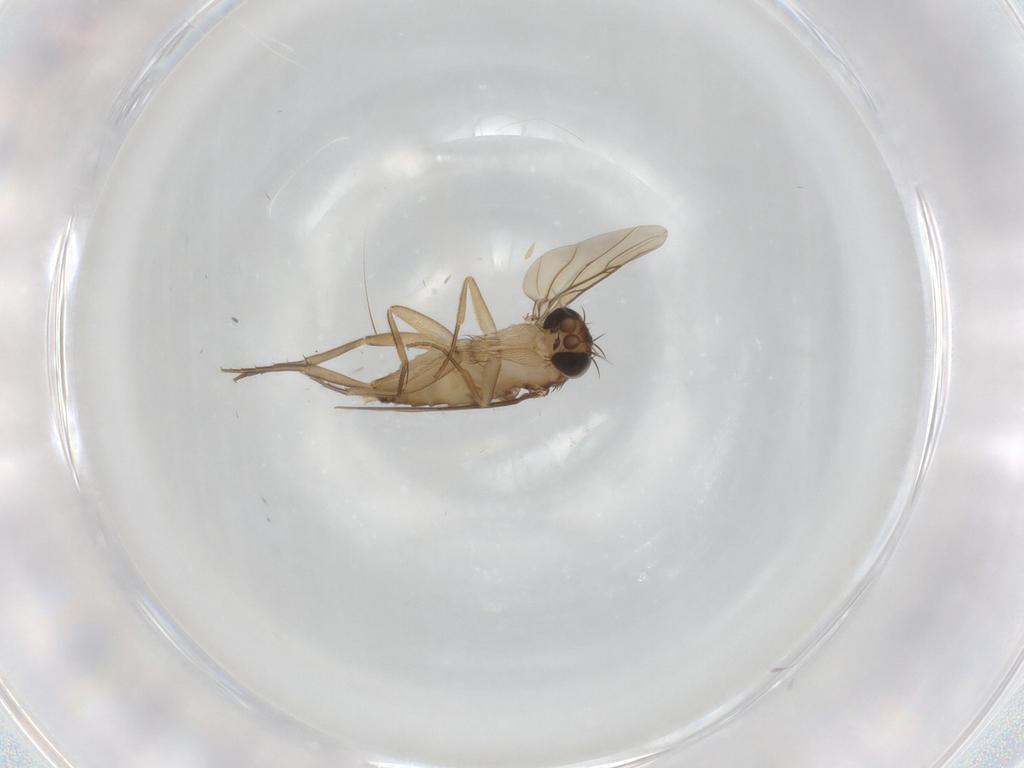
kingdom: Animalia
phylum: Arthropoda
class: Insecta
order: Diptera
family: Phoridae
